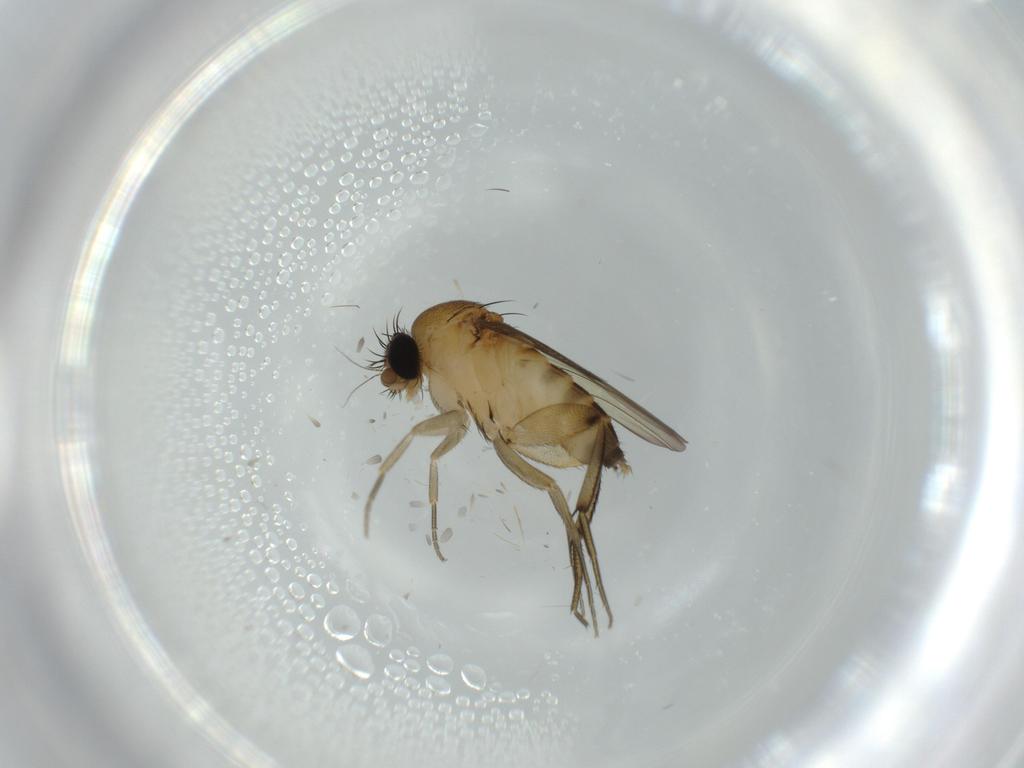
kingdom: Animalia
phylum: Arthropoda
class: Insecta
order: Diptera
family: Phoridae
